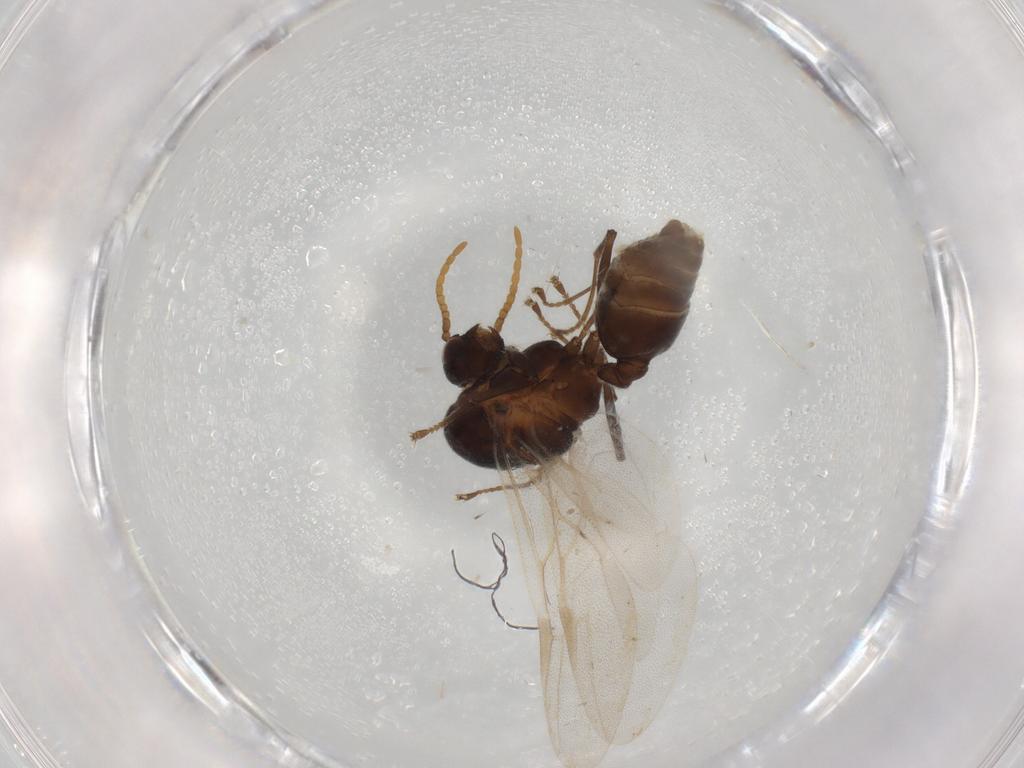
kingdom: Animalia
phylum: Arthropoda
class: Insecta
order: Hymenoptera
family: Formicidae
